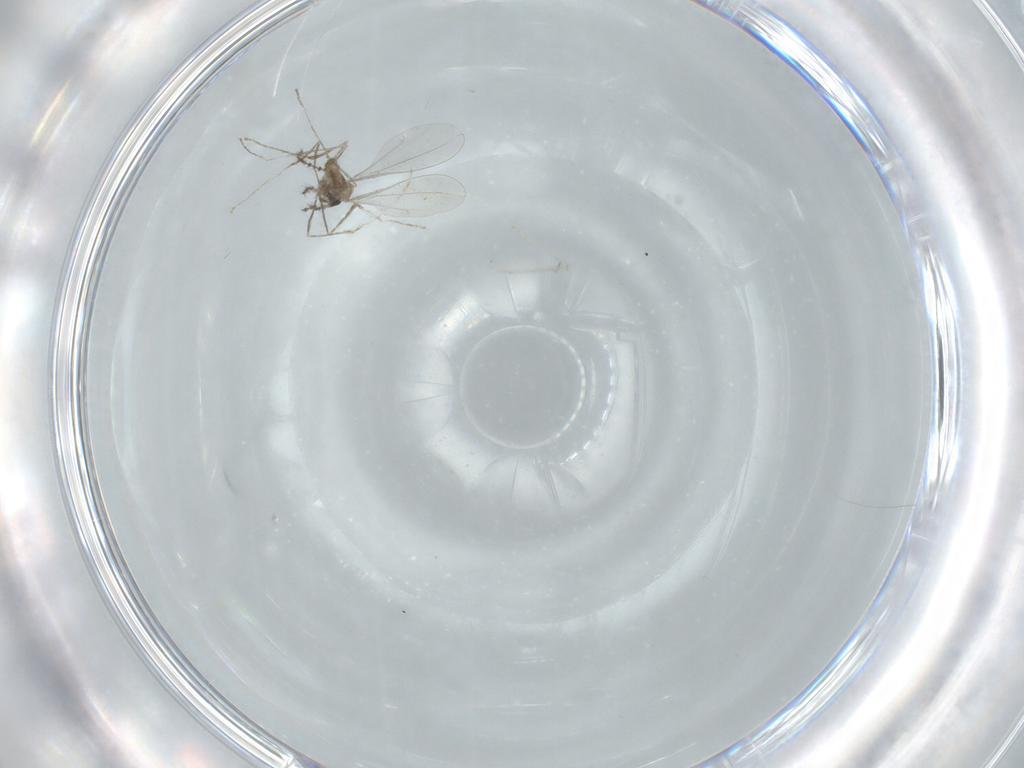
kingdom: Animalia
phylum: Arthropoda
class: Insecta
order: Diptera
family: Cecidomyiidae
